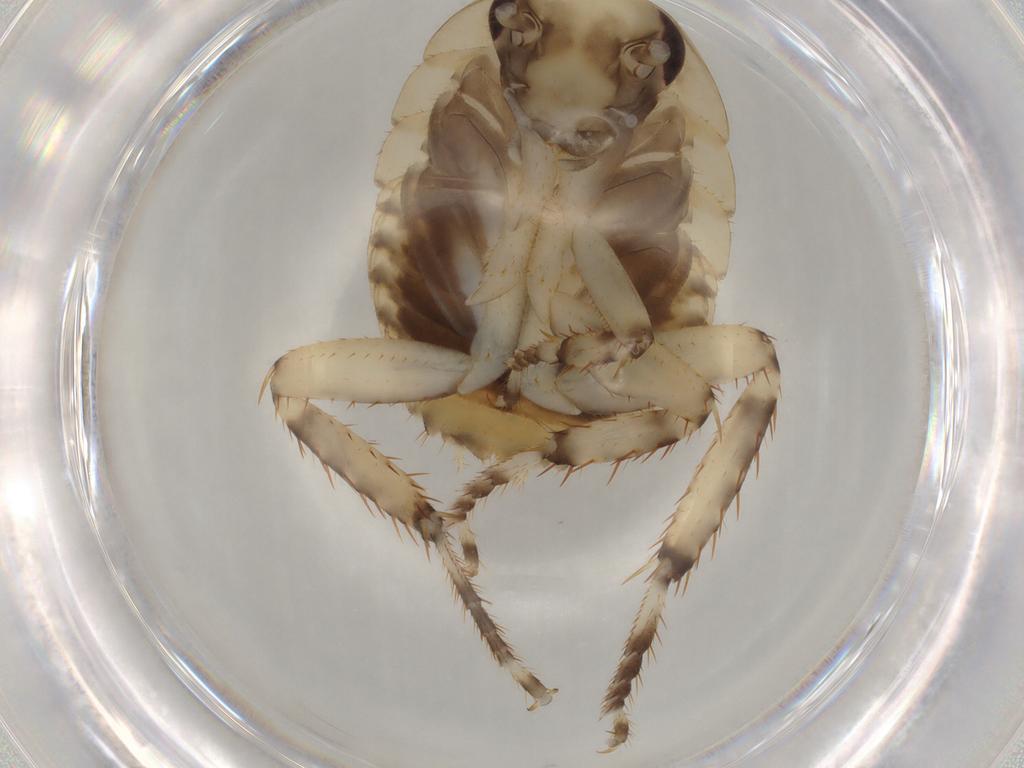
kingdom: Animalia
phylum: Arthropoda
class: Insecta
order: Blattodea
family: Blattidae
